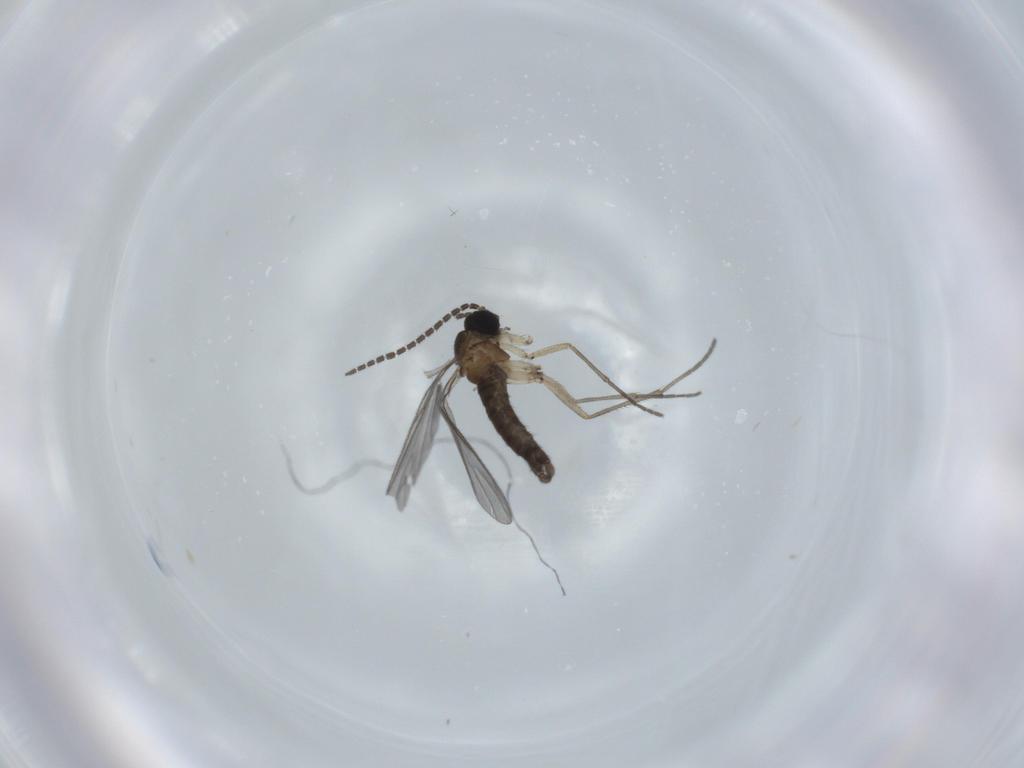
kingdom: Animalia
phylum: Arthropoda
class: Insecta
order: Diptera
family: Sciaridae
